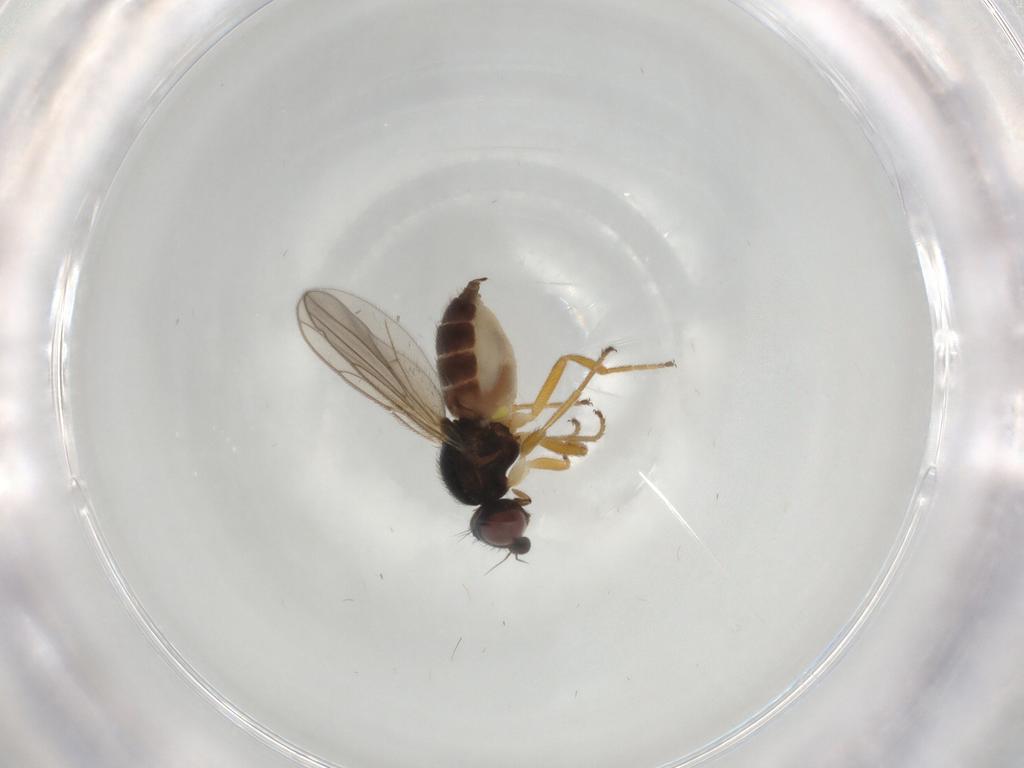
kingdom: Animalia
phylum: Arthropoda
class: Insecta
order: Diptera
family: Chloropidae
